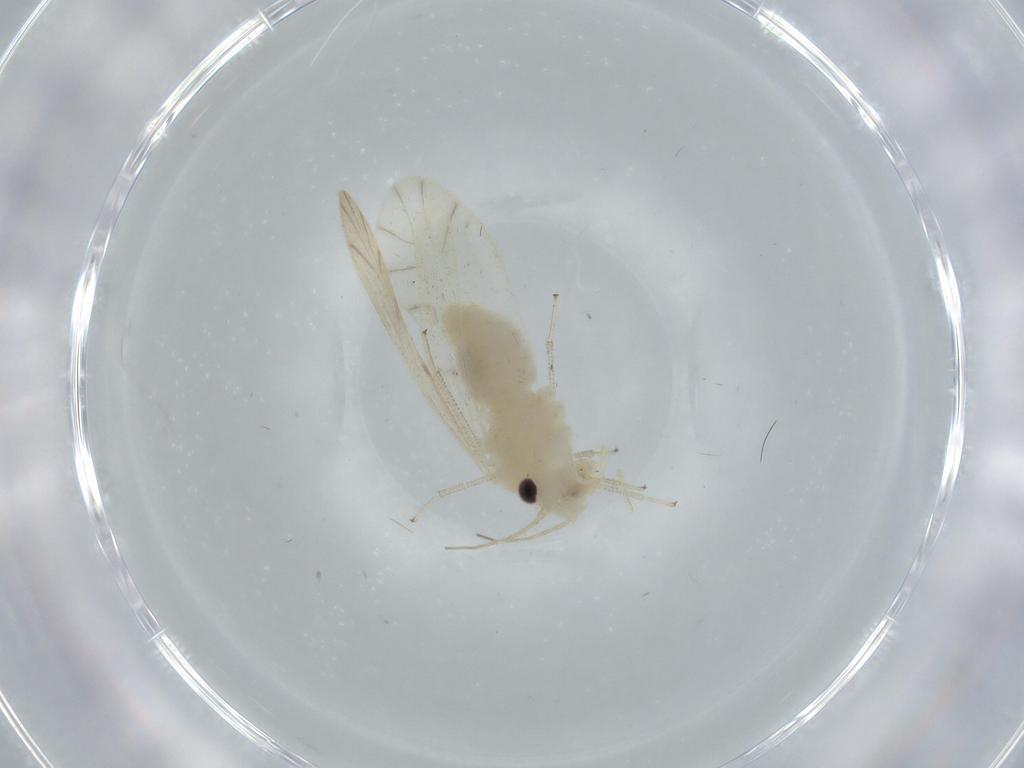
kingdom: Animalia
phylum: Arthropoda
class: Insecta
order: Psocodea
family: Caeciliusidae
